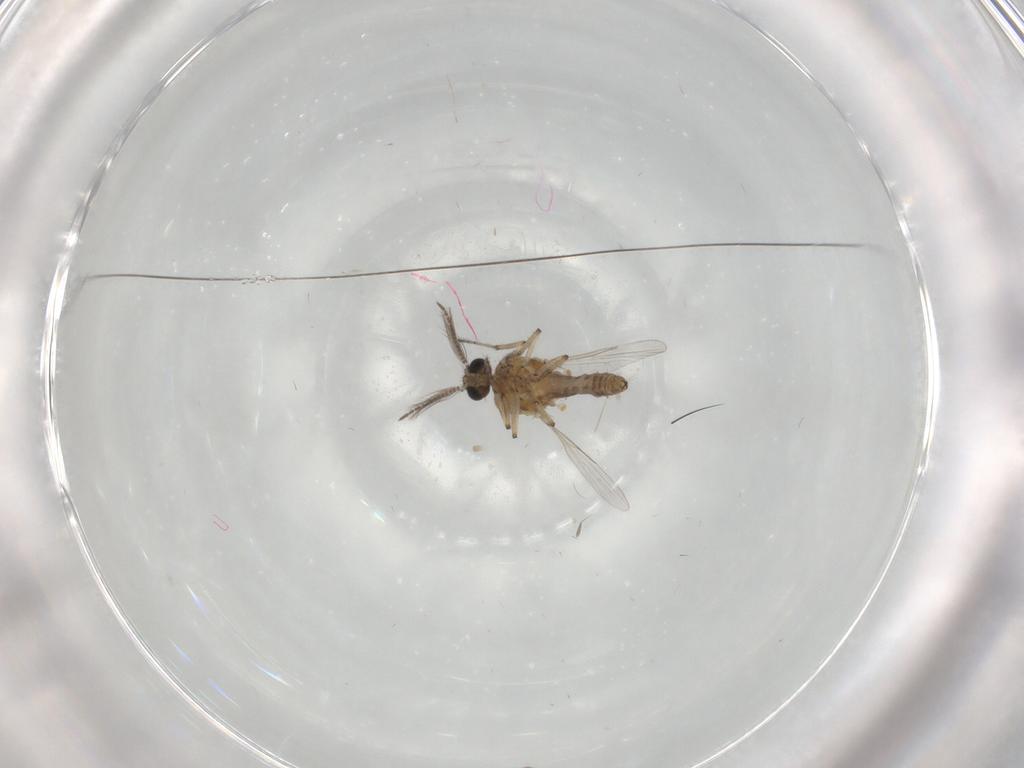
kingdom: Animalia
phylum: Arthropoda
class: Insecta
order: Diptera
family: Ceratopogonidae
